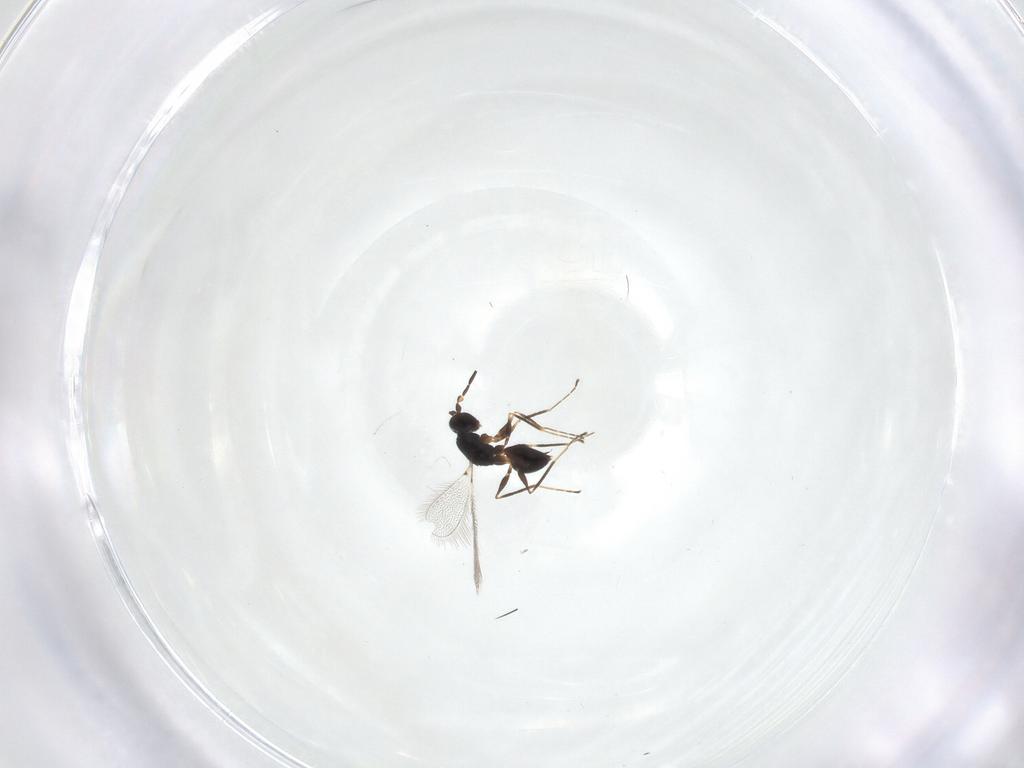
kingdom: Animalia
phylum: Arthropoda
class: Insecta
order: Hymenoptera
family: Mymaridae
